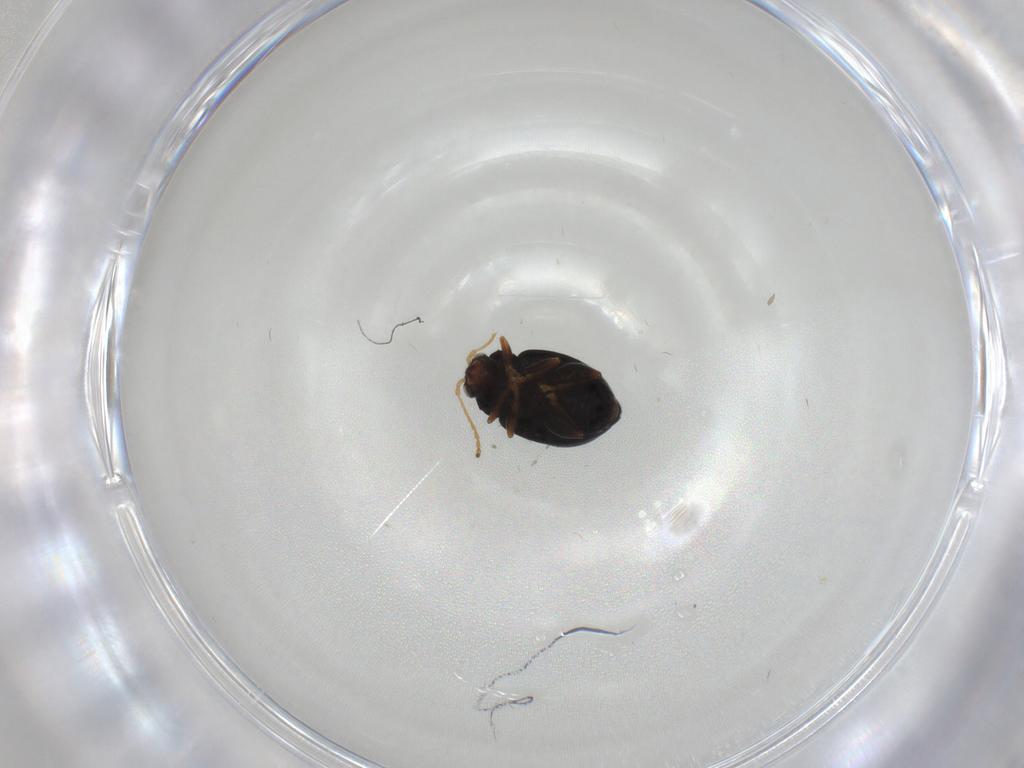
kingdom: Animalia
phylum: Arthropoda
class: Insecta
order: Coleoptera
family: Chrysomelidae
